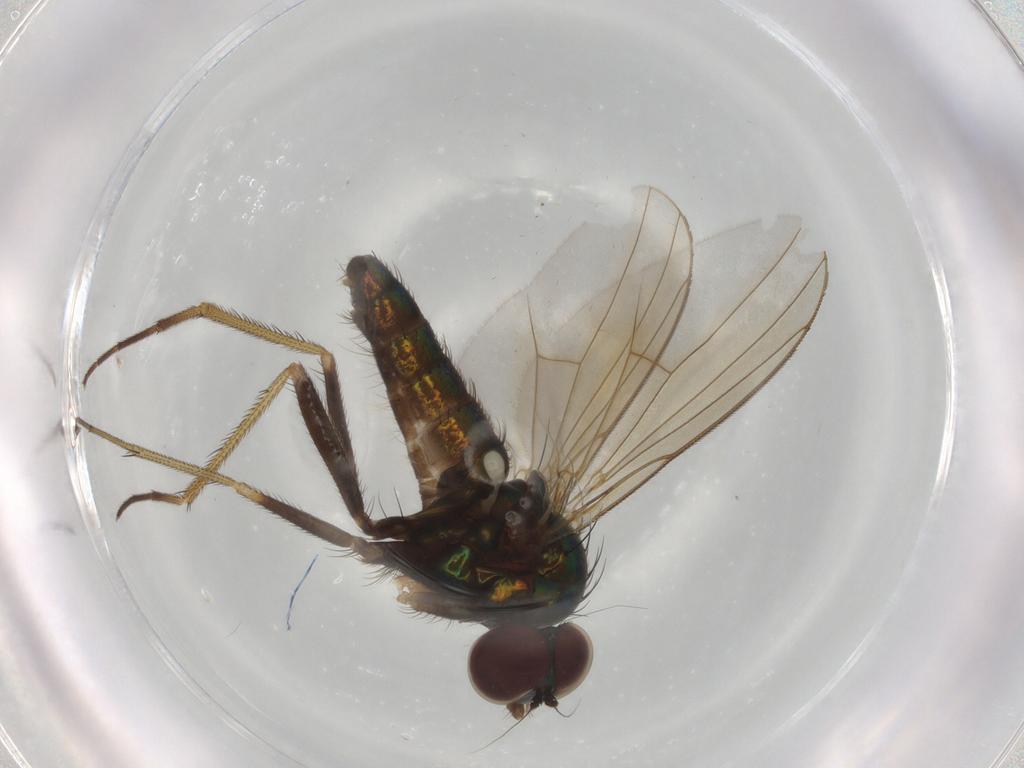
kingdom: Animalia
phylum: Arthropoda
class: Insecta
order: Diptera
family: Dolichopodidae
